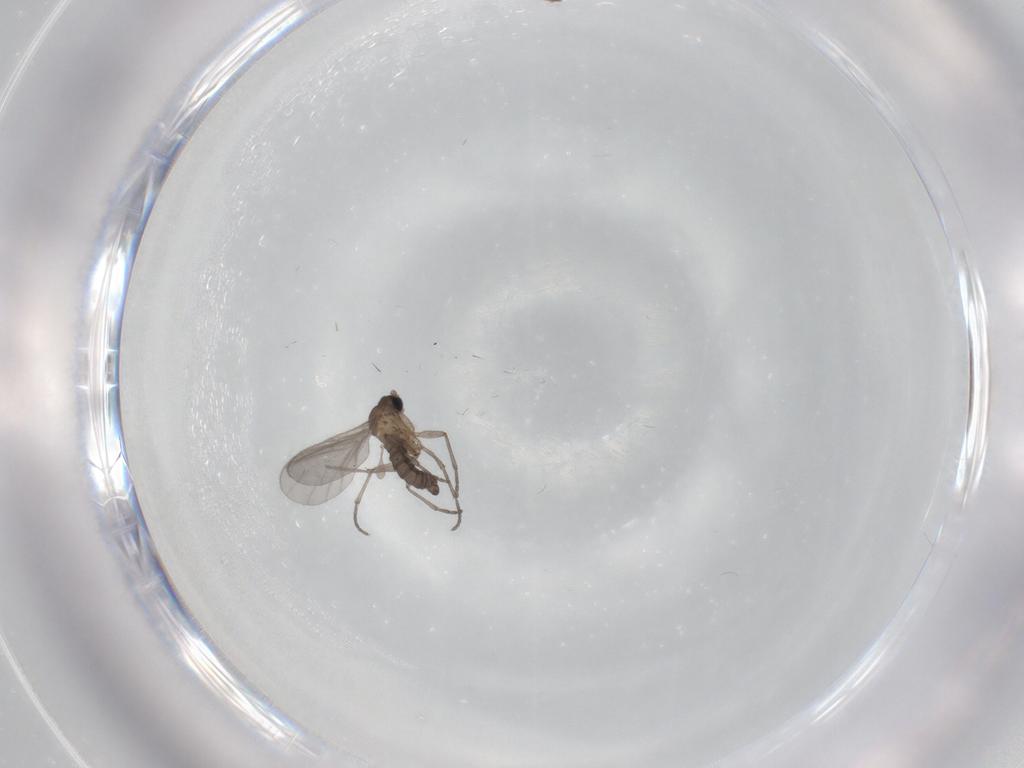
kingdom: Animalia
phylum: Arthropoda
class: Insecta
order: Diptera
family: Sciaridae
